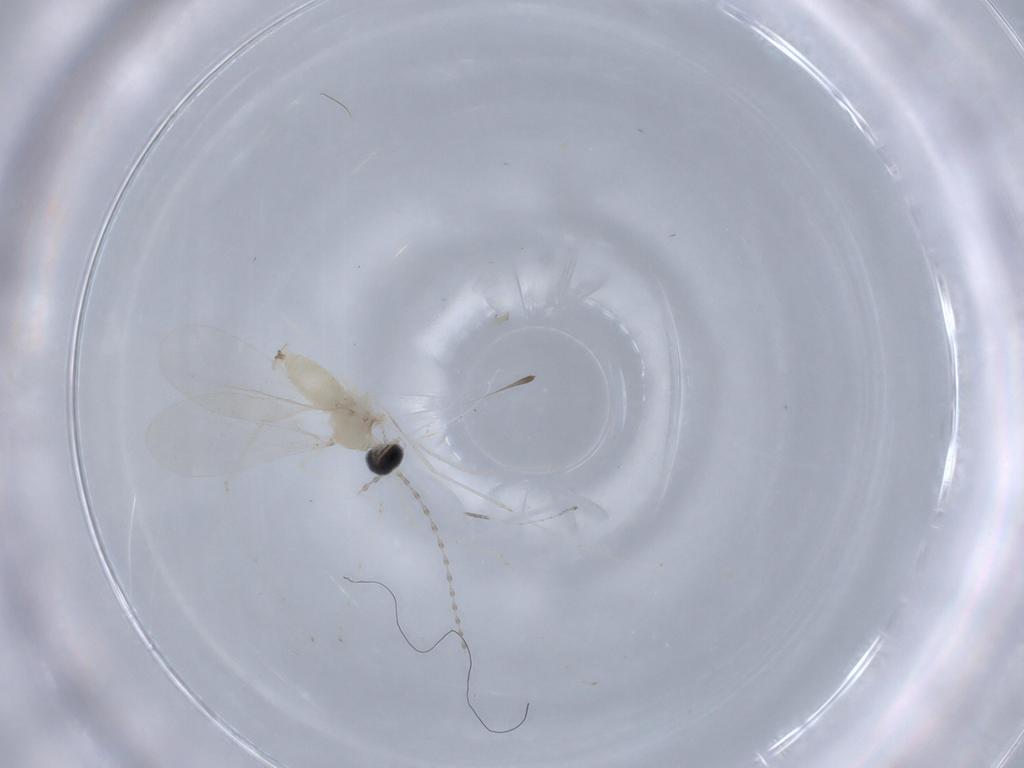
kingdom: Animalia
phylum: Arthropoda
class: Insecta
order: Diptera
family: Cecidomyiidae
